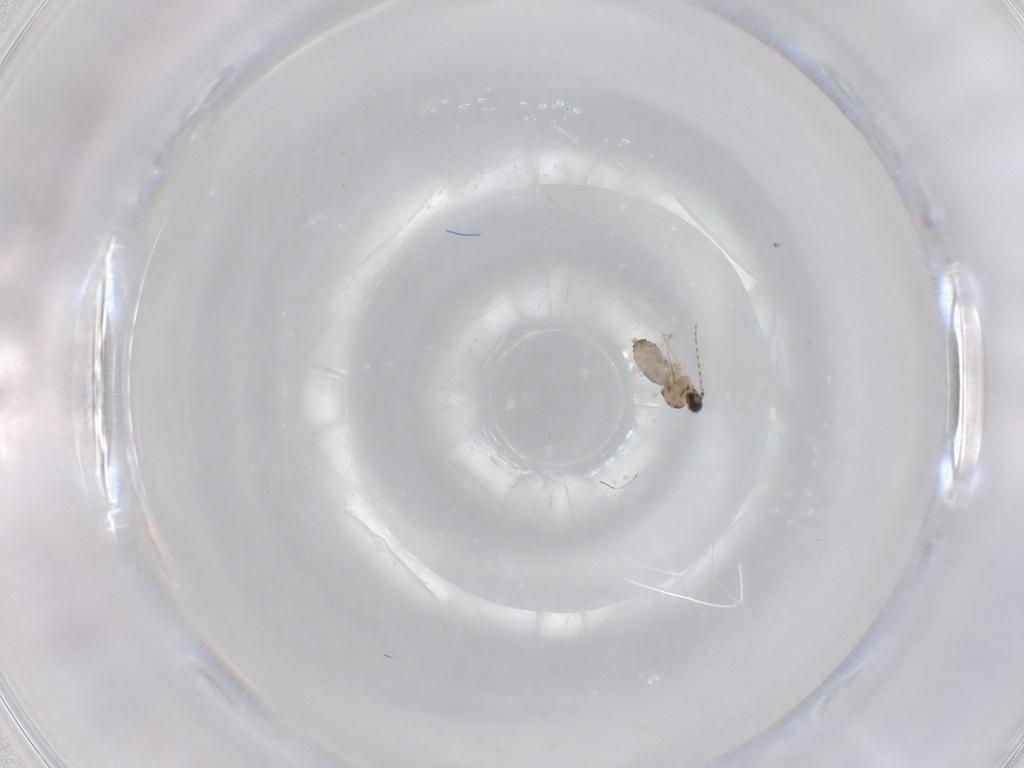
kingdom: Animalia
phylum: Arthropoda
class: Insecta
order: Diptera
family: Cecidomyiidae
